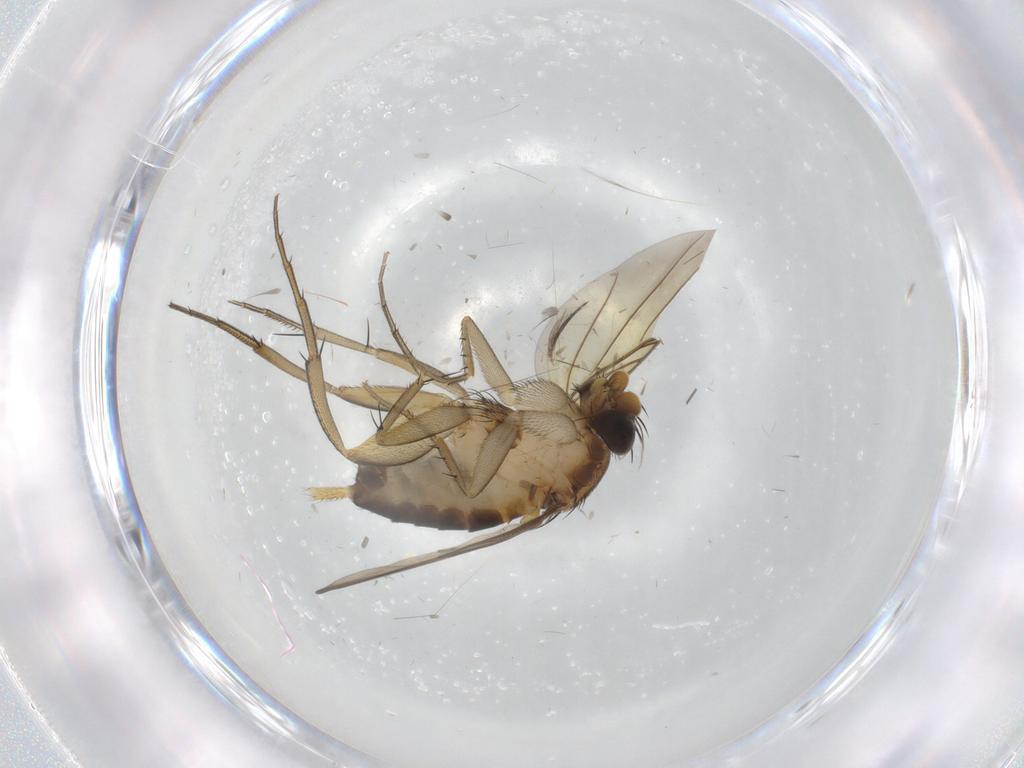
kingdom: Animalia
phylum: Arthropoda
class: Insecta
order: Diptera
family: Phoridae
